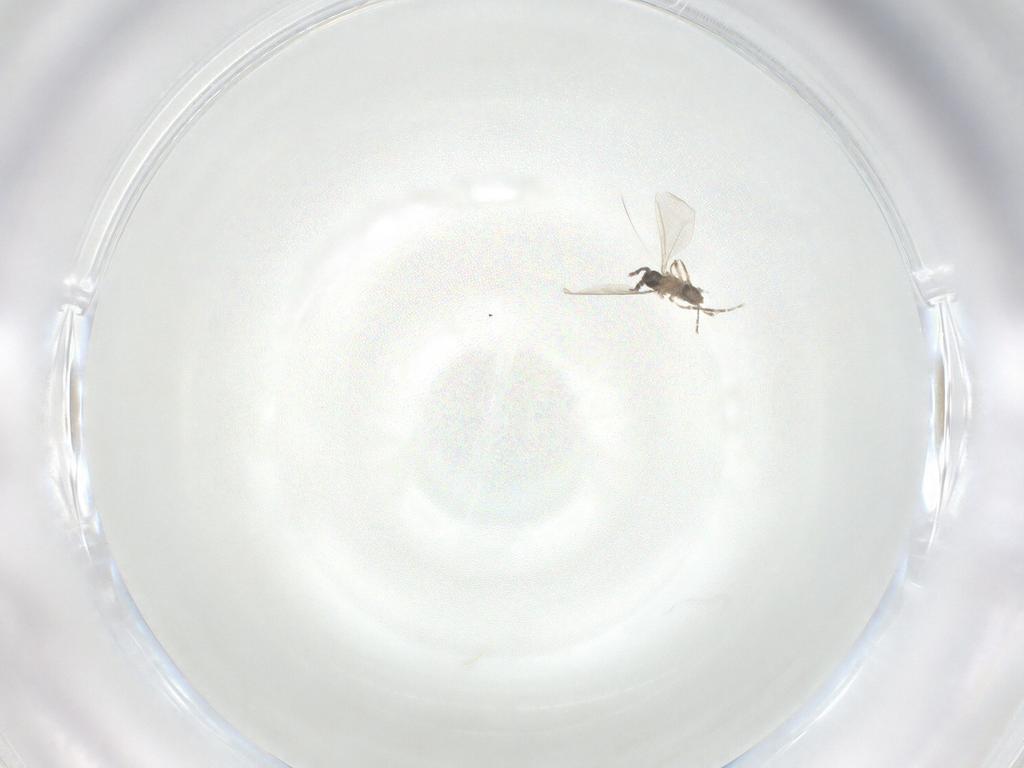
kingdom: Animalia
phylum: Arthropoda
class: Insecta
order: Diptera
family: Cecidomyiidae
